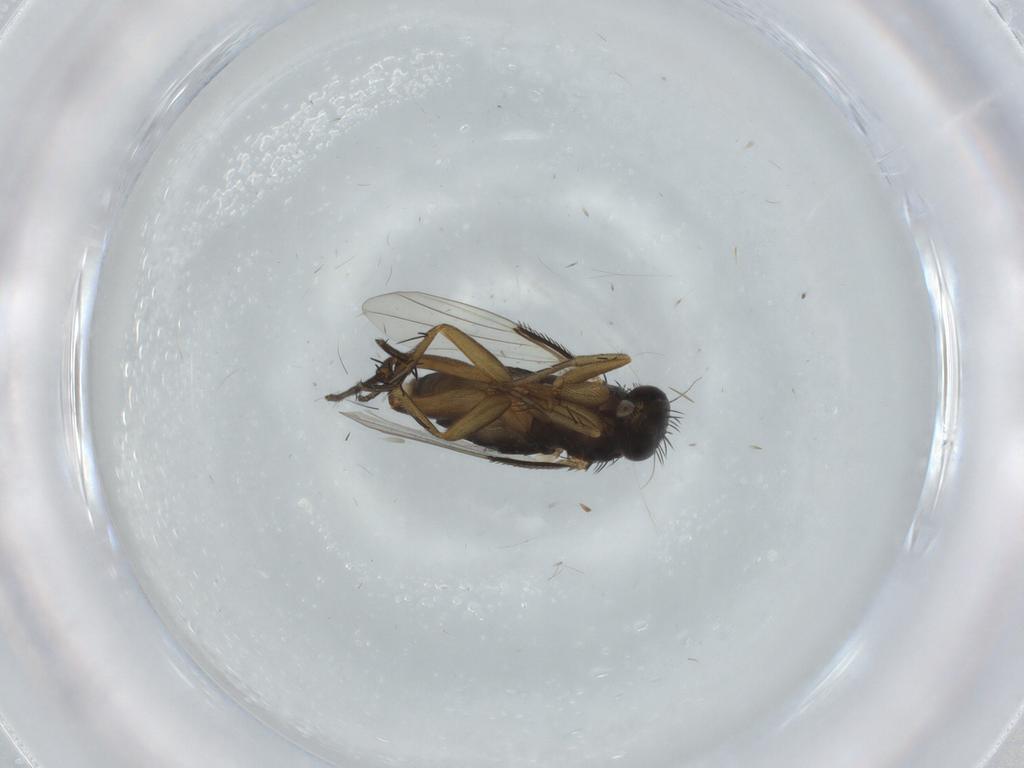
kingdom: Animalia
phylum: Arthropoda
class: Insecta
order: Diptera
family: Phoridae
